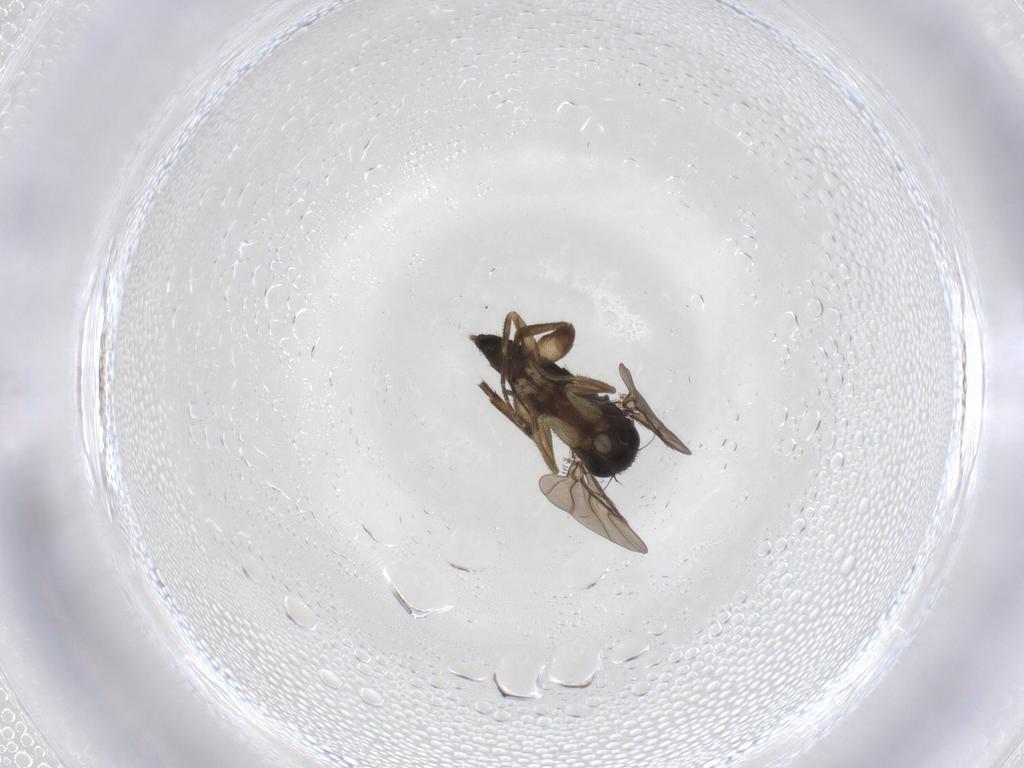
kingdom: Animalia
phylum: Arthropoda
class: Insecta
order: Diptera
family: Phoridae
